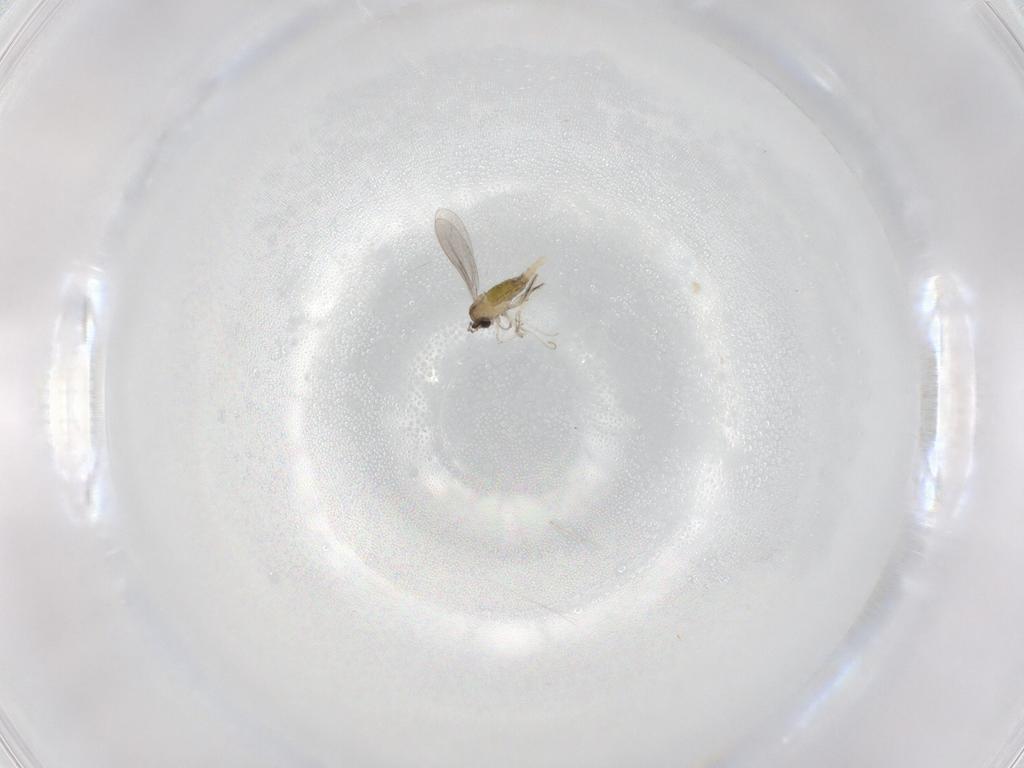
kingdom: Animalia
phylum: Arthropoda
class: Insecta
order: Diptera
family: Cecidomyiidae
